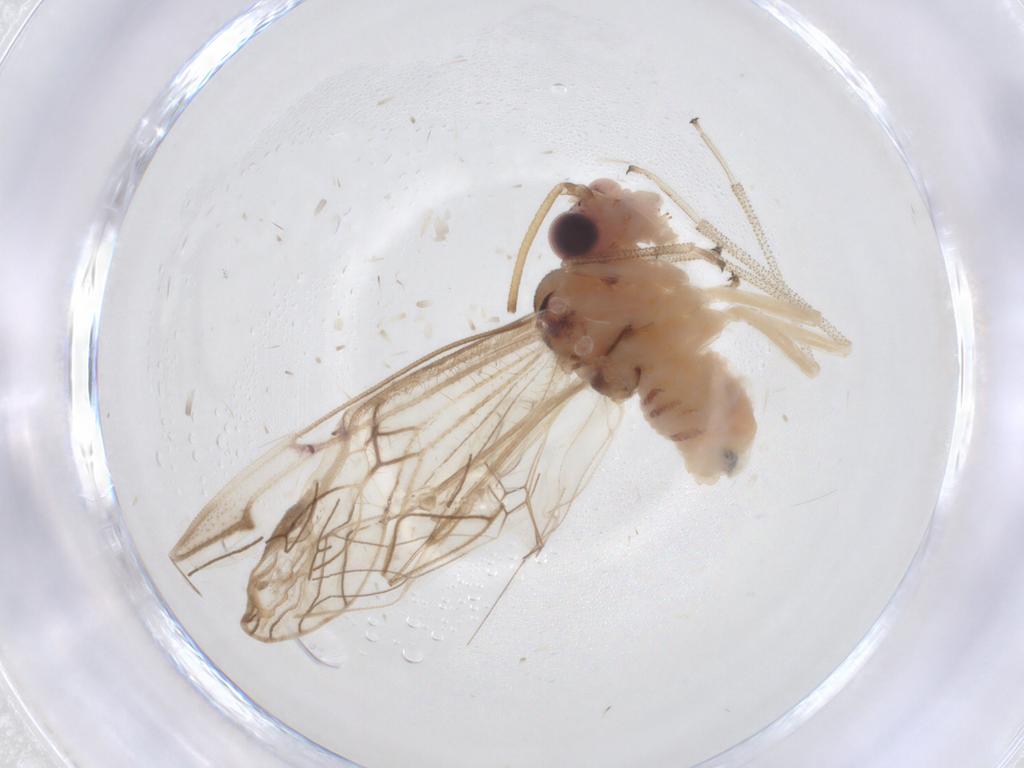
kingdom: Animalia
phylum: Arthropoda
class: Insecta
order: Psocodea
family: Amphipsocidae
